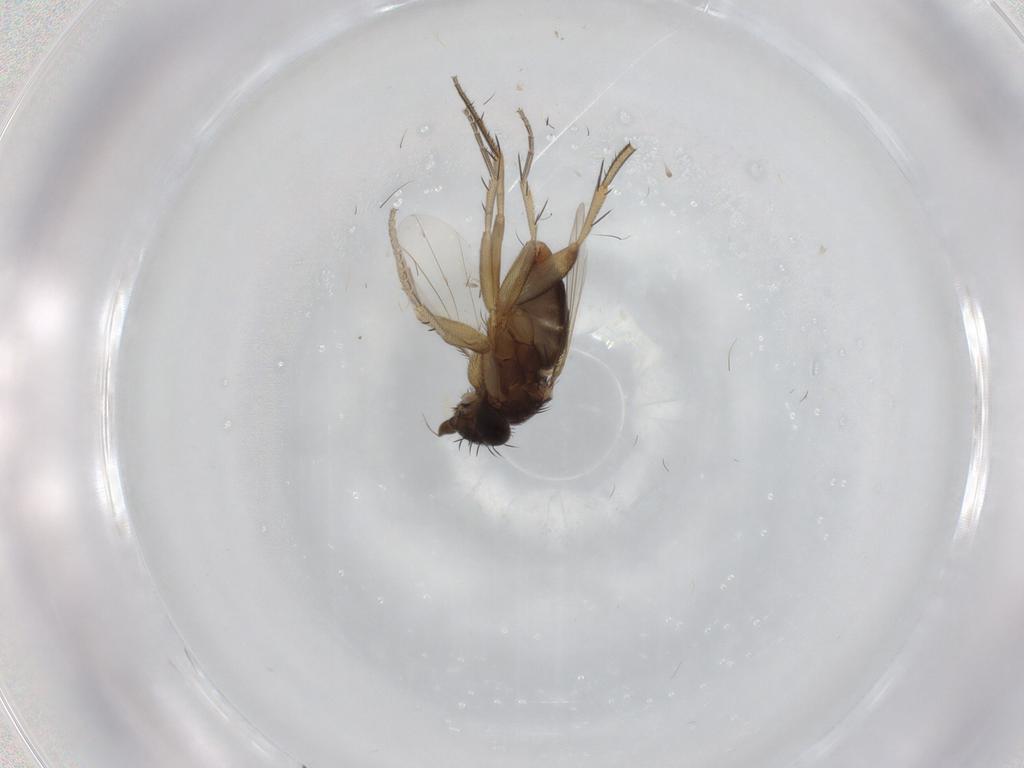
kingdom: Animalia
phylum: Arthropoda
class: Insecta
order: Diptera
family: Phoridae
